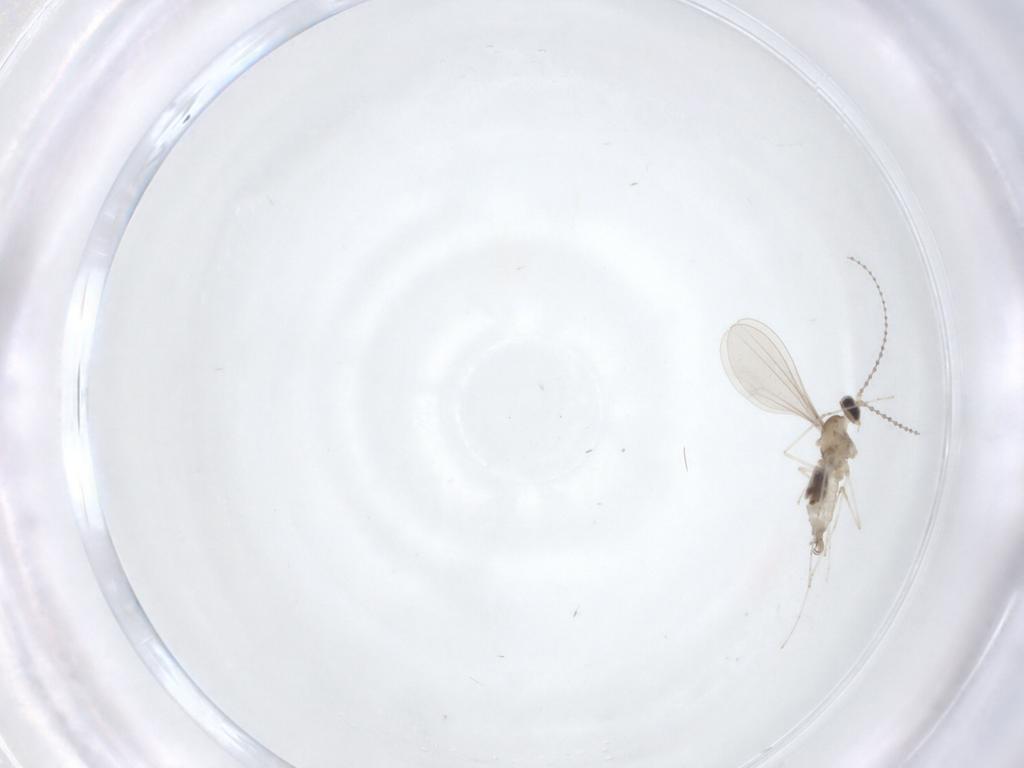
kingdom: Animalia
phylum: Arthropoda
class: Insecta
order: Diptera
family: Cecidomyiidae
